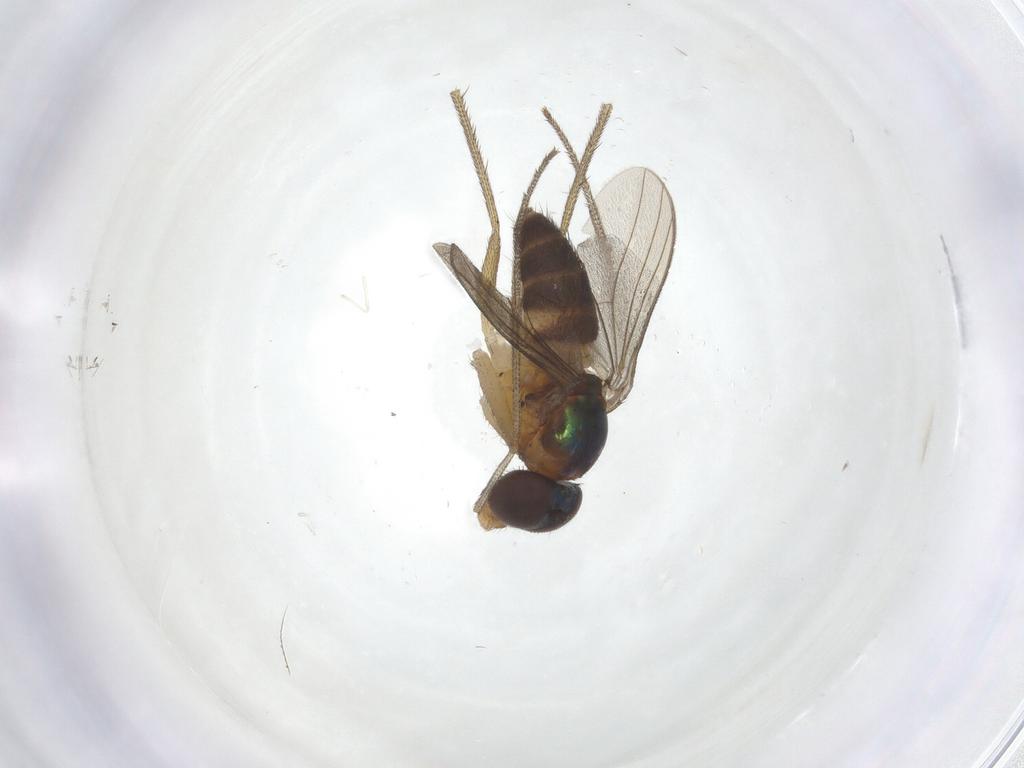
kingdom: Animalia
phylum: Arthropoda
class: Insecta
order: Diptera
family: Dolichopodidae
